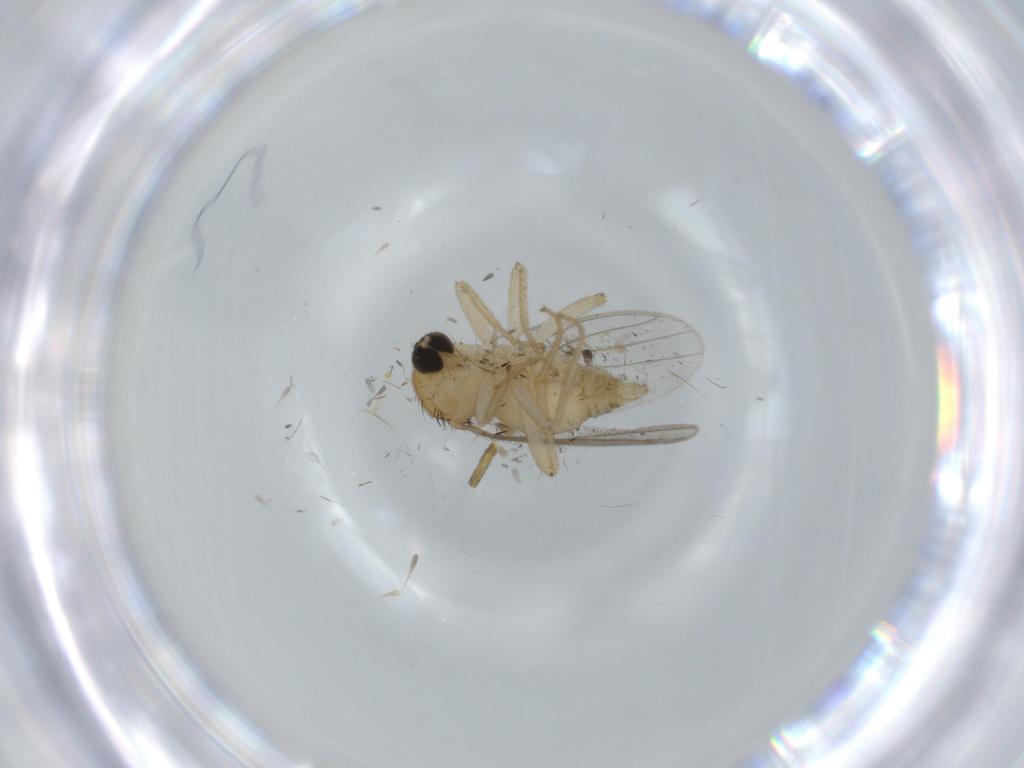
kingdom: Animalia
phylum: Arthropoda
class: Insecta
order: Diptera
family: Hybotidae
